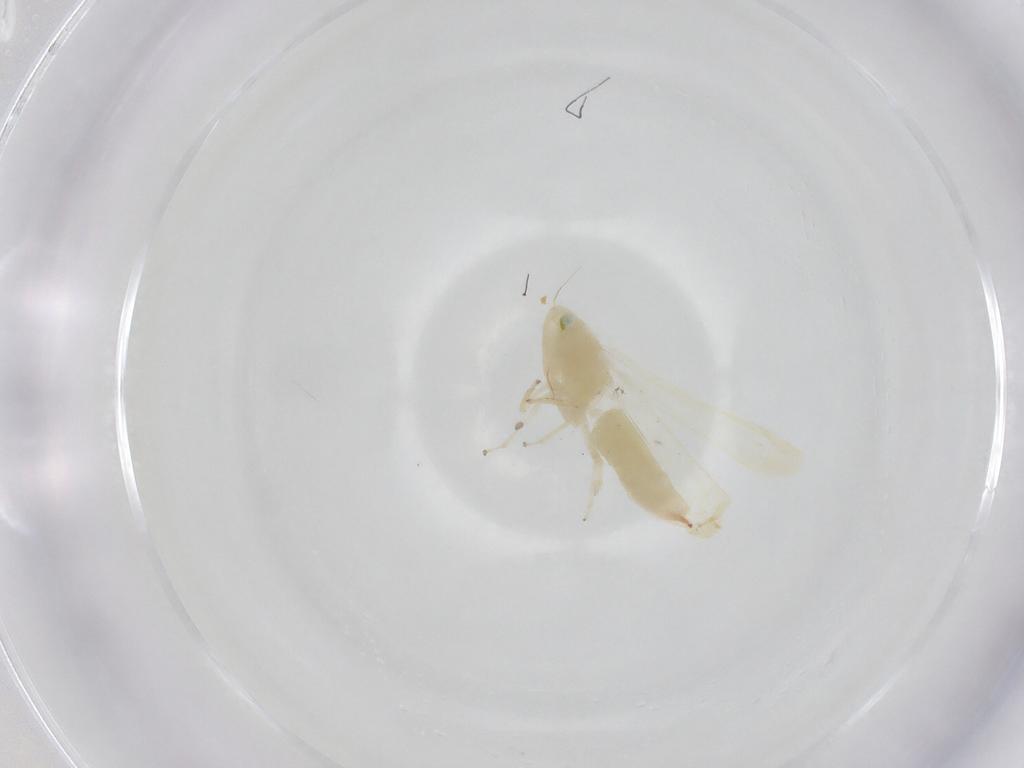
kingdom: Animalia
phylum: Arthropoda
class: Insecta
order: Hemiptera
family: Cicadellidae
